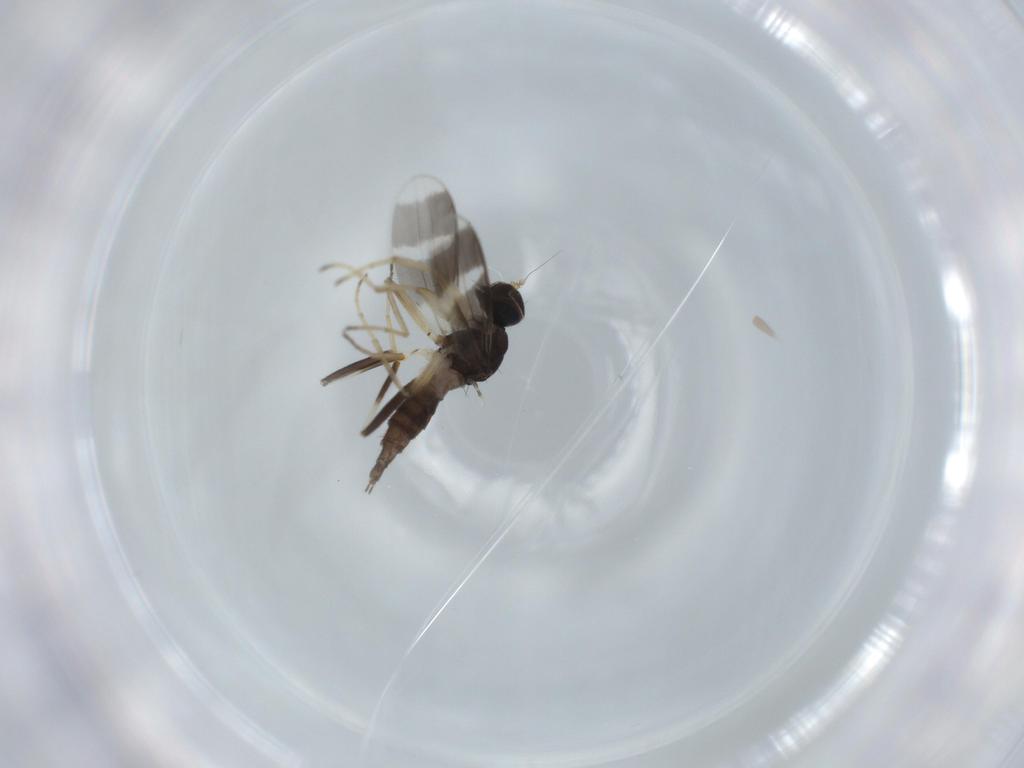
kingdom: Animalia
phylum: Arthropoda
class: Insecta
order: Diptera
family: Hybotidae
